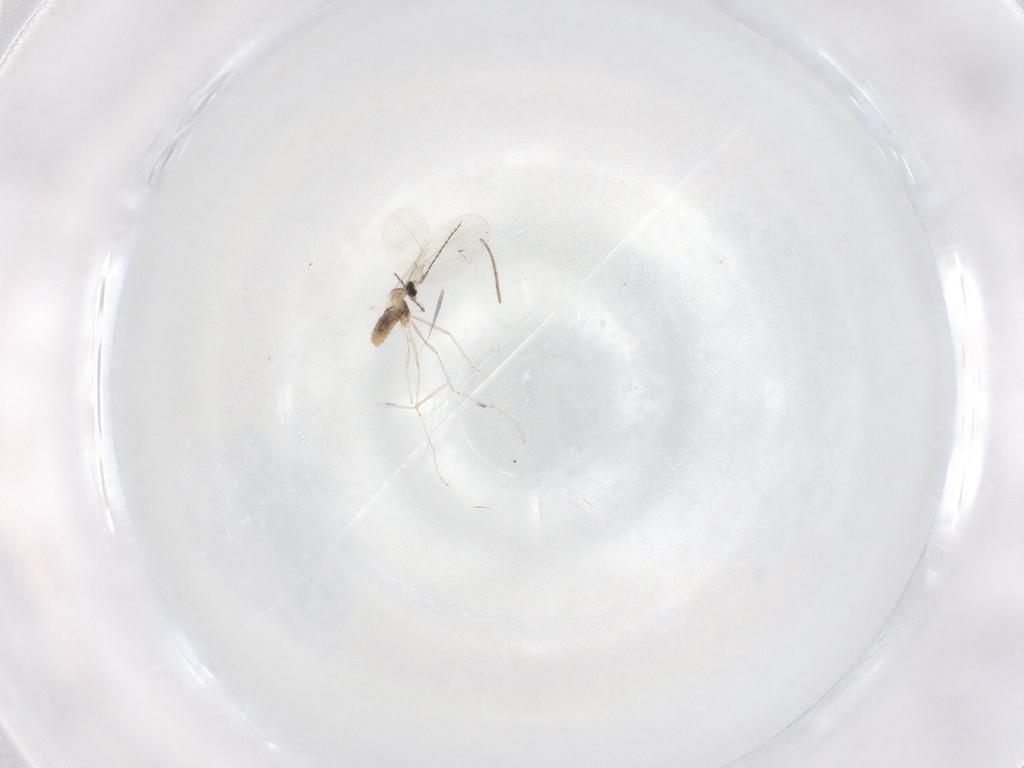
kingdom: Animalia
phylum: Arthropoda
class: Insecta
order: Diptera
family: Chironomidae
